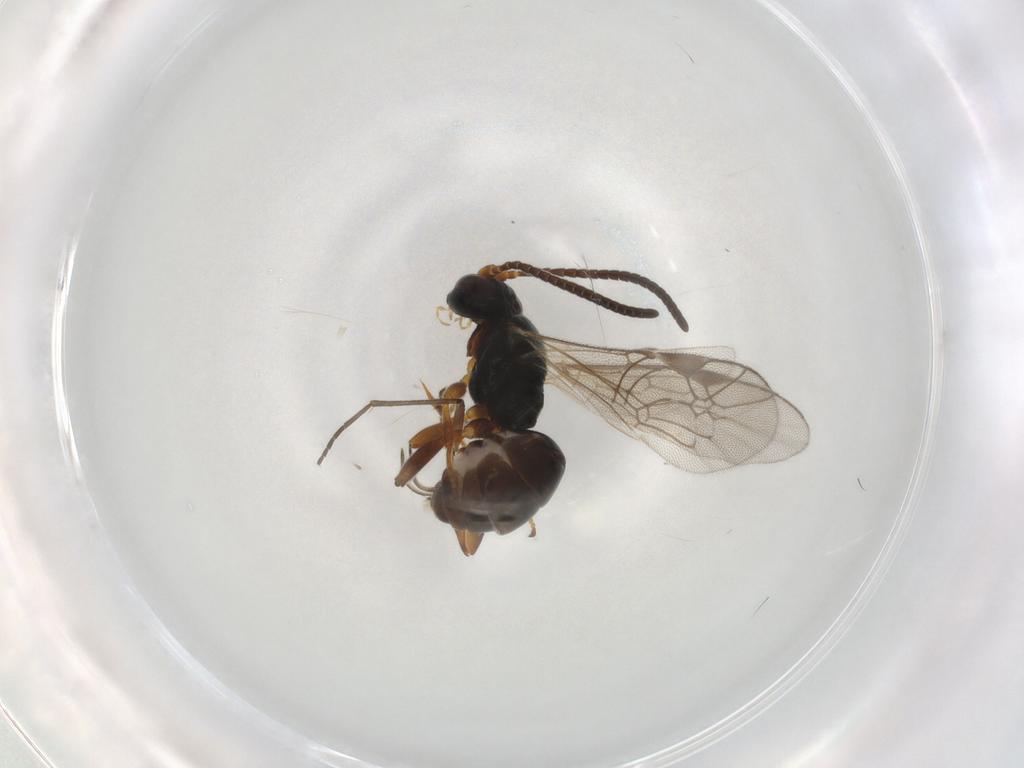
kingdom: Animalia
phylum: Arthropoda
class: Insecta
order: Hymenoptera
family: Ichneumonidae
